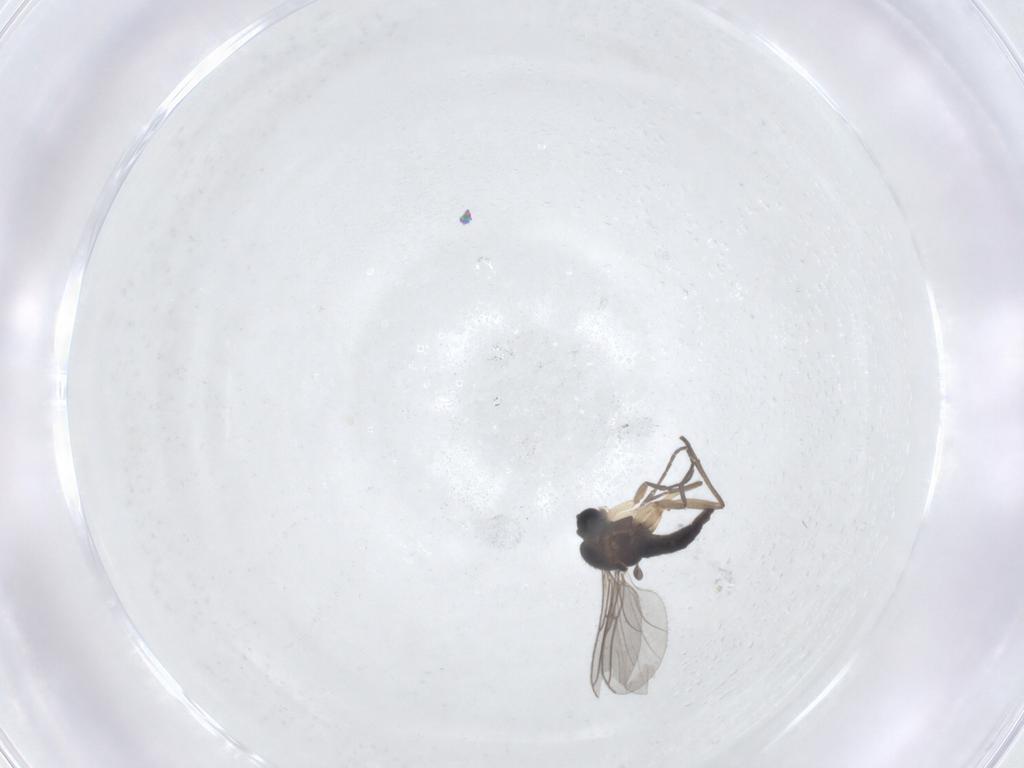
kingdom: Animalia
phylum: Arthropoda
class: Insecta
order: Diptera
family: Sciaridae
